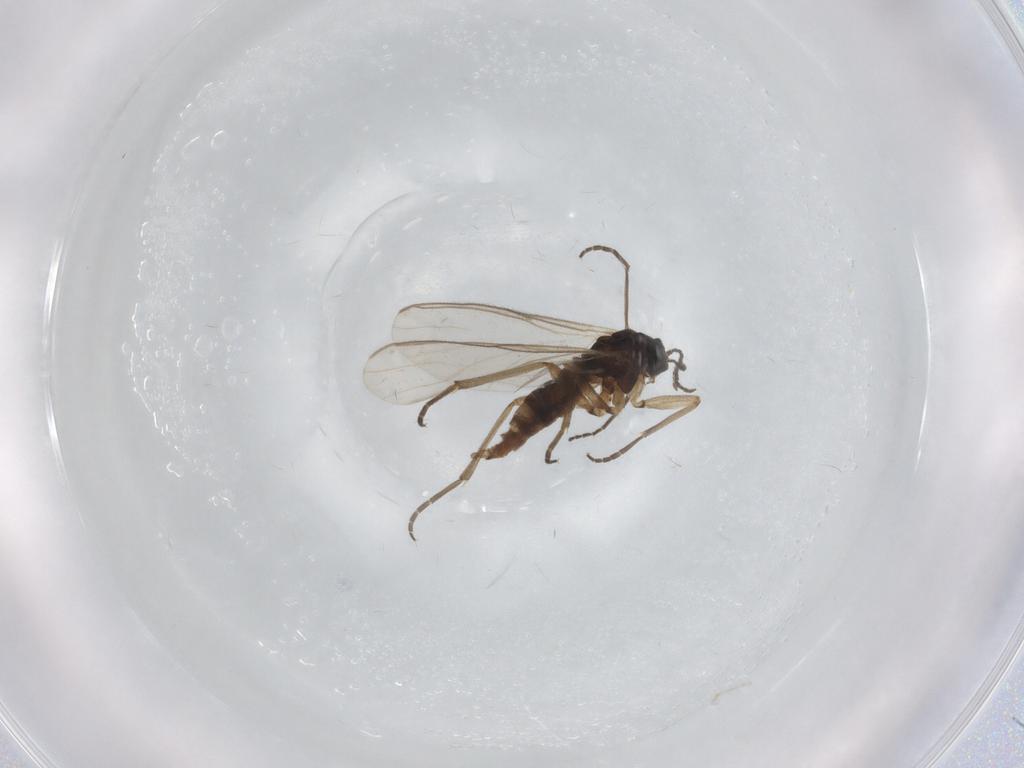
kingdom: Animalia
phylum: Arthropoda
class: Insecta
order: Diptera
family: Sciaridae
